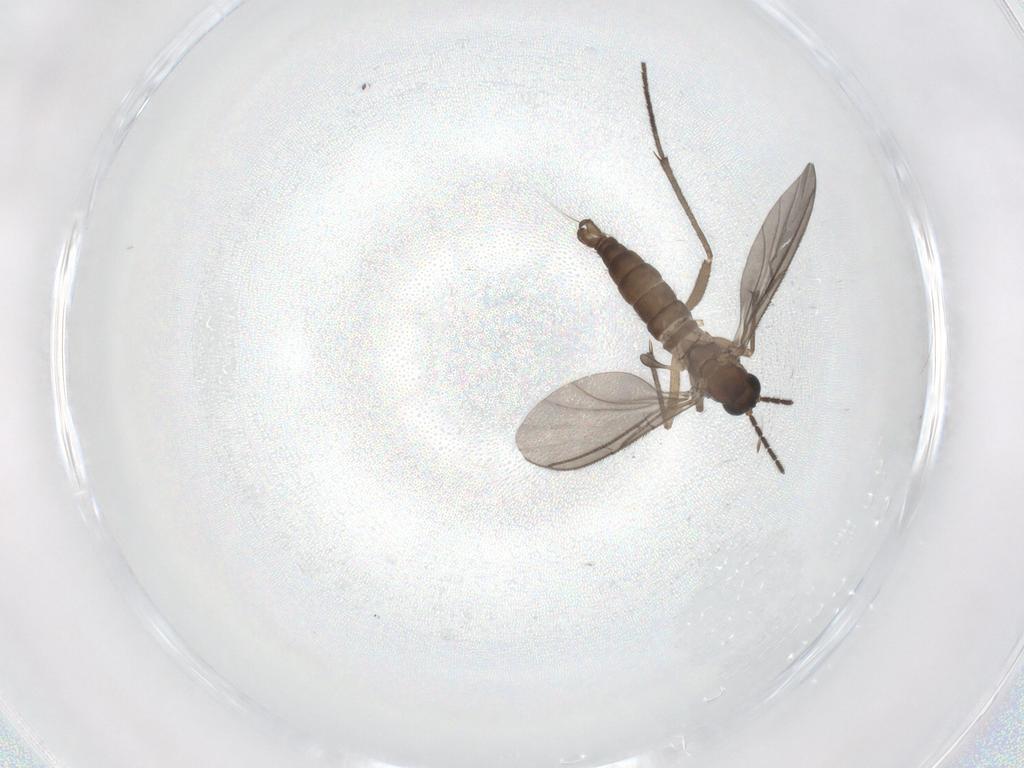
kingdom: Animalia
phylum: Arthropoda
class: Insecta
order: Diptera
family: Sciaridae
